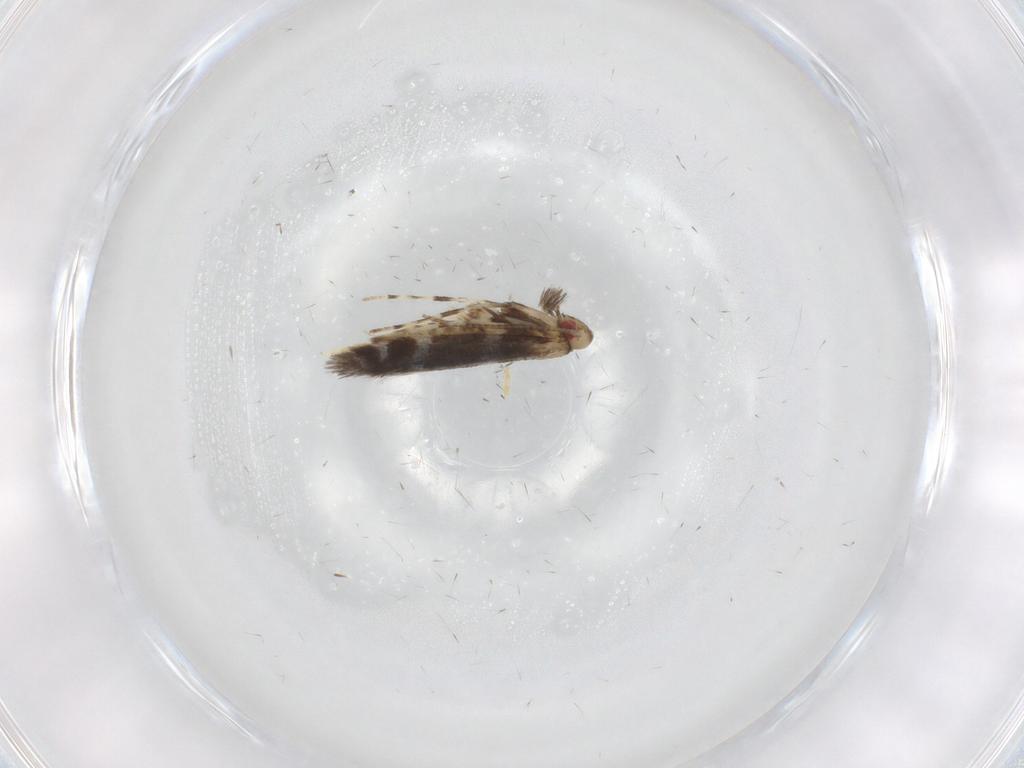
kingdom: Animalia
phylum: Arthropoda
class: Insecta
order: Lepidoptera
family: Gracillariidae
